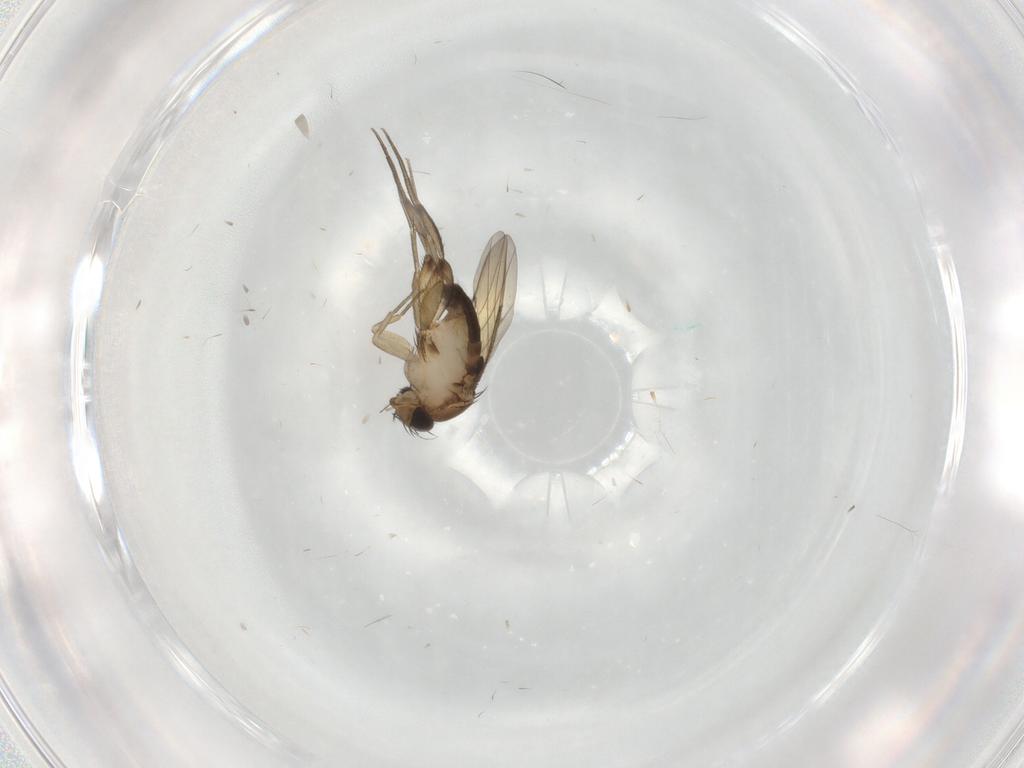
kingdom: Animalia
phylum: Arthropoda
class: Insecta
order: Diptera
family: Phoridae
